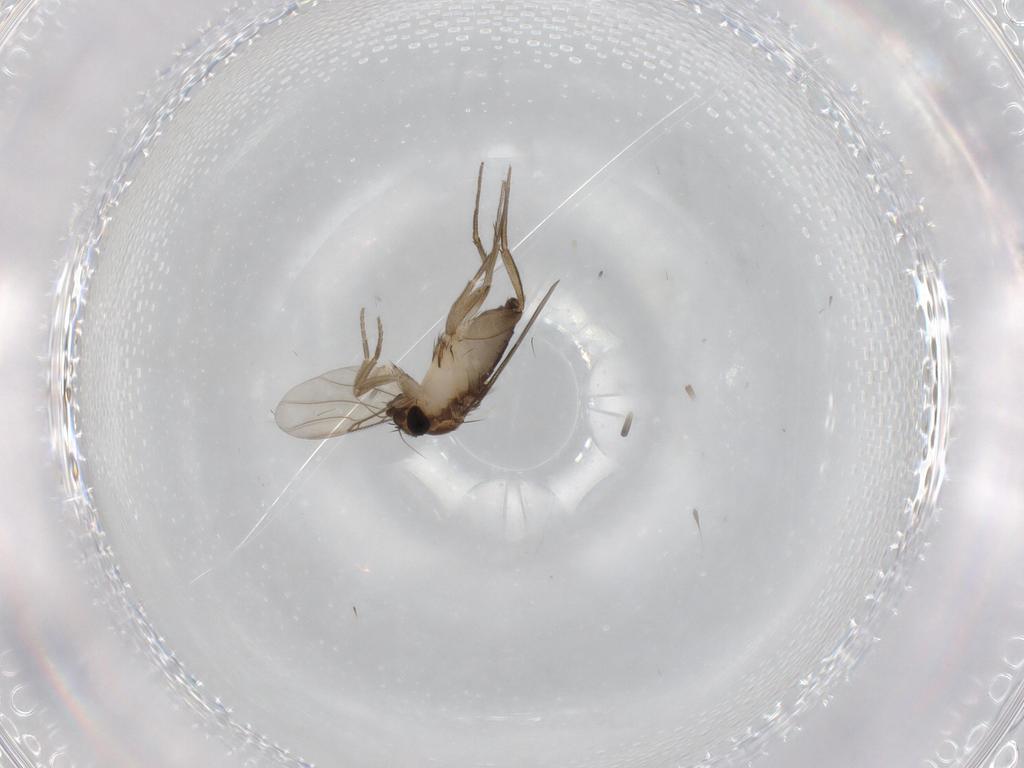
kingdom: Animalia
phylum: Arthropoda
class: Insecta
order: Diptera
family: Phoridae
